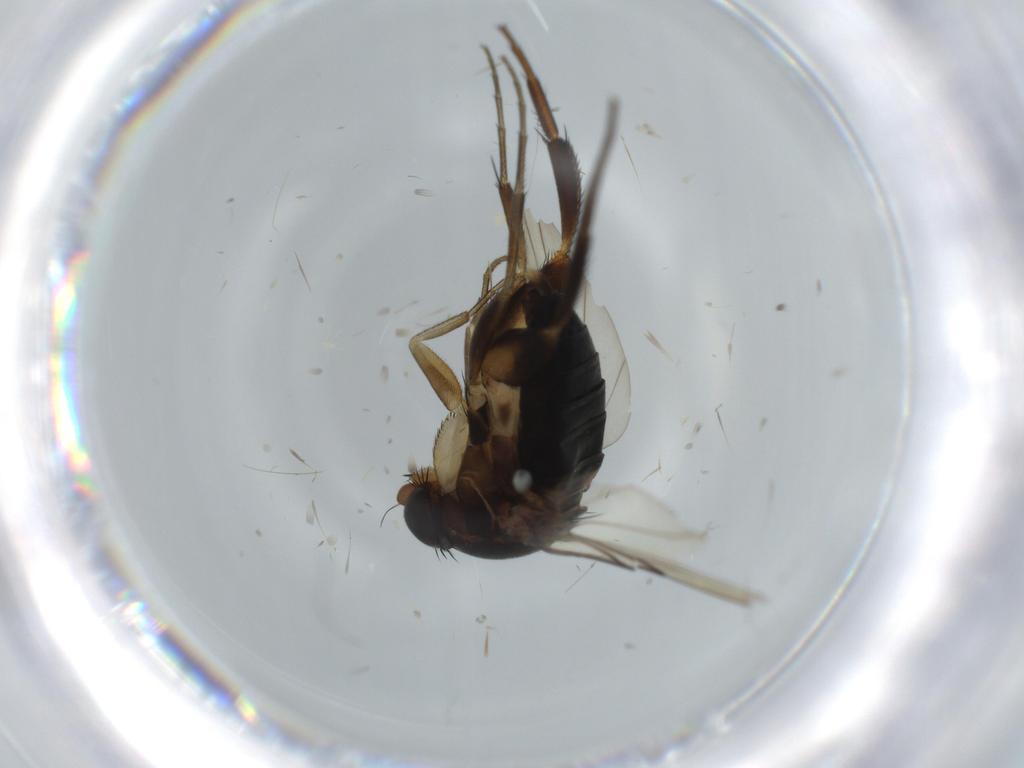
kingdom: Animalia
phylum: Arthropoda
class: Insecta
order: Diptera
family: Phoridae
